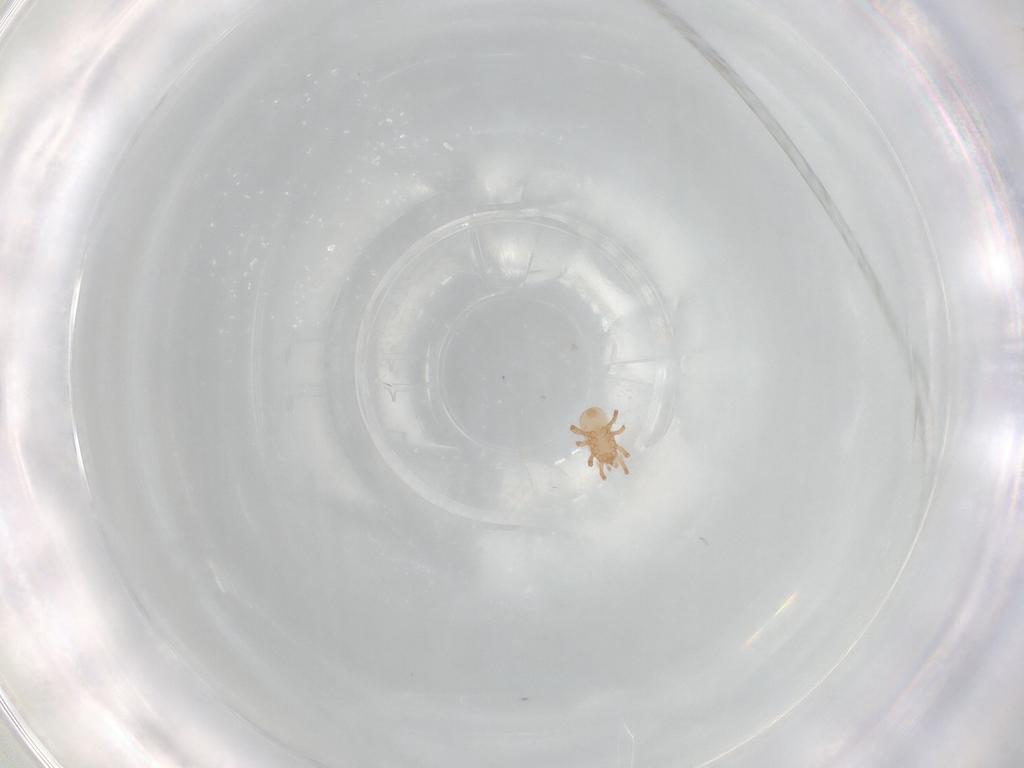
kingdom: Animalia
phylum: Arthropoda
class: Arachnida
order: Mesostigmata
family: Ascidae
